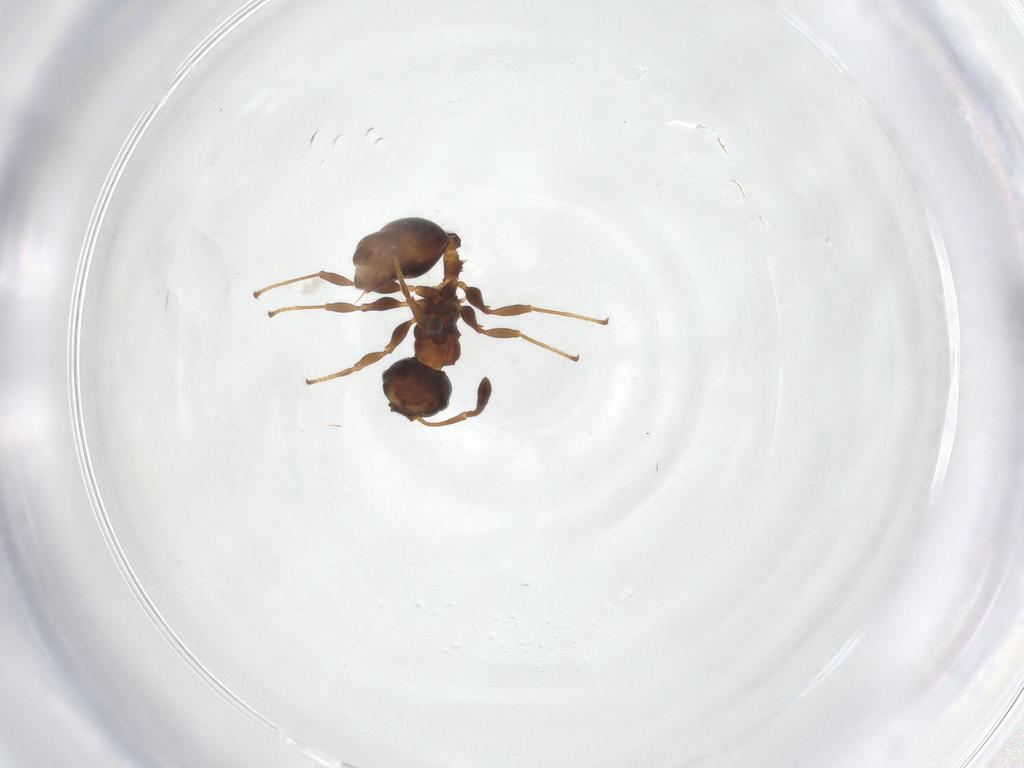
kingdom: Animalia
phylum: Arthropoda
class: Insecta
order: Hymenoptera
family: Formicidae
